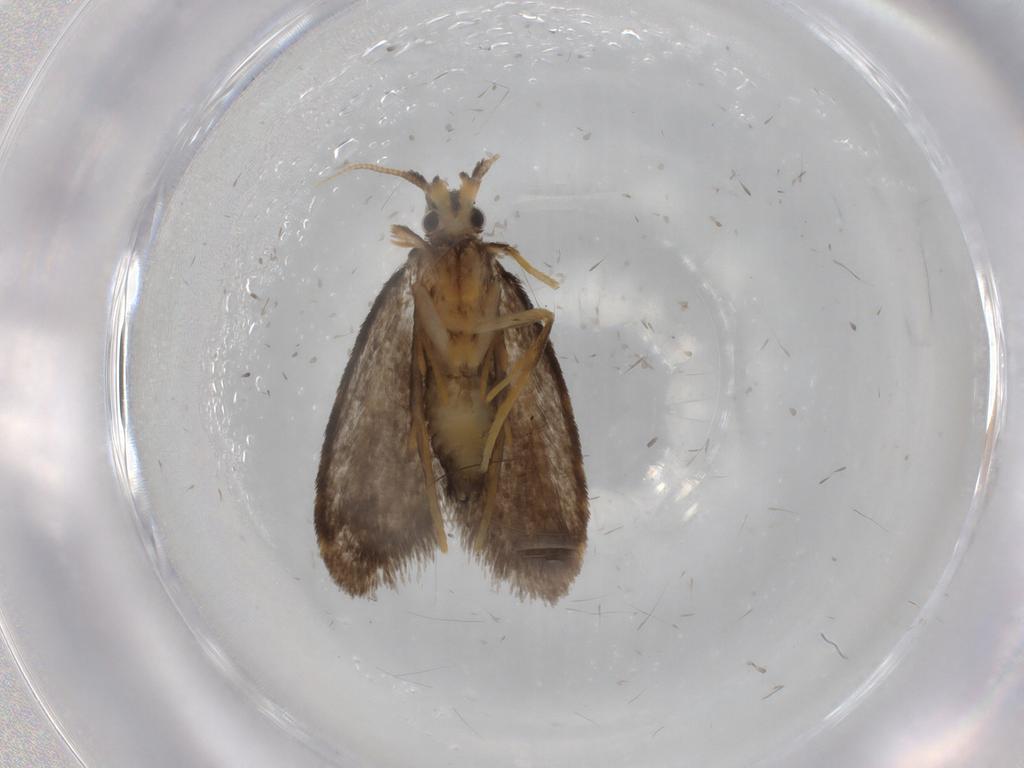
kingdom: Animalia
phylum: Arthropoda
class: Insecta
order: Lepidoptera
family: Psychidae
